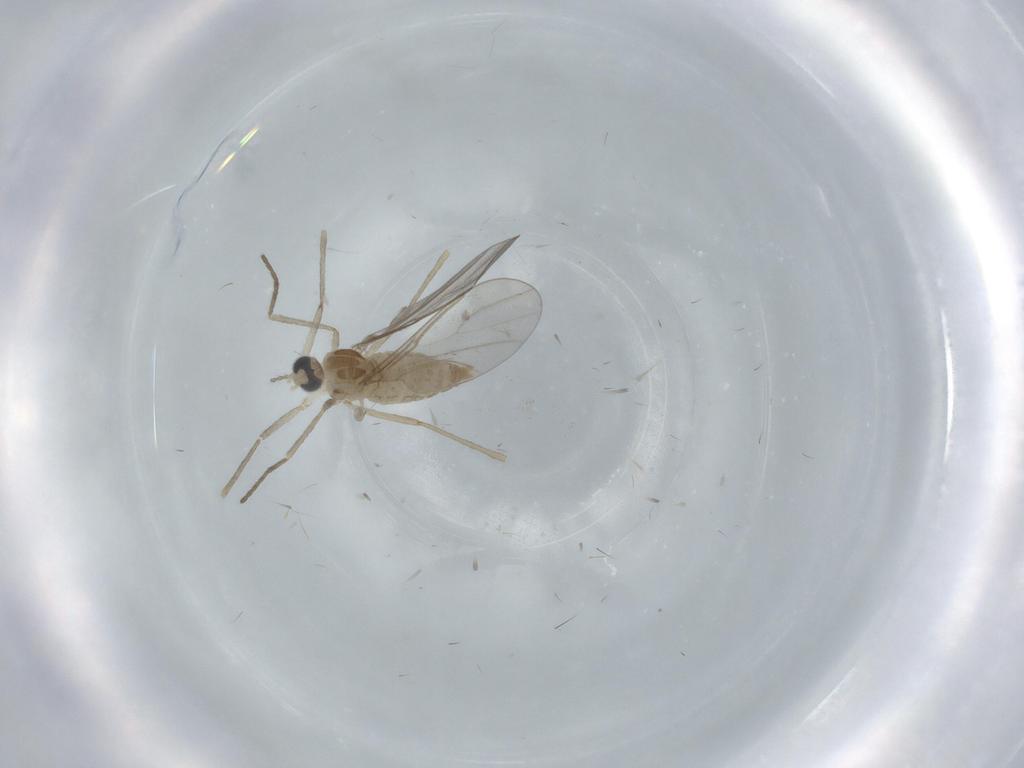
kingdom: Animalia
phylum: Arthropoda
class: Insecta
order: Diptera
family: Cecidomyiidae
